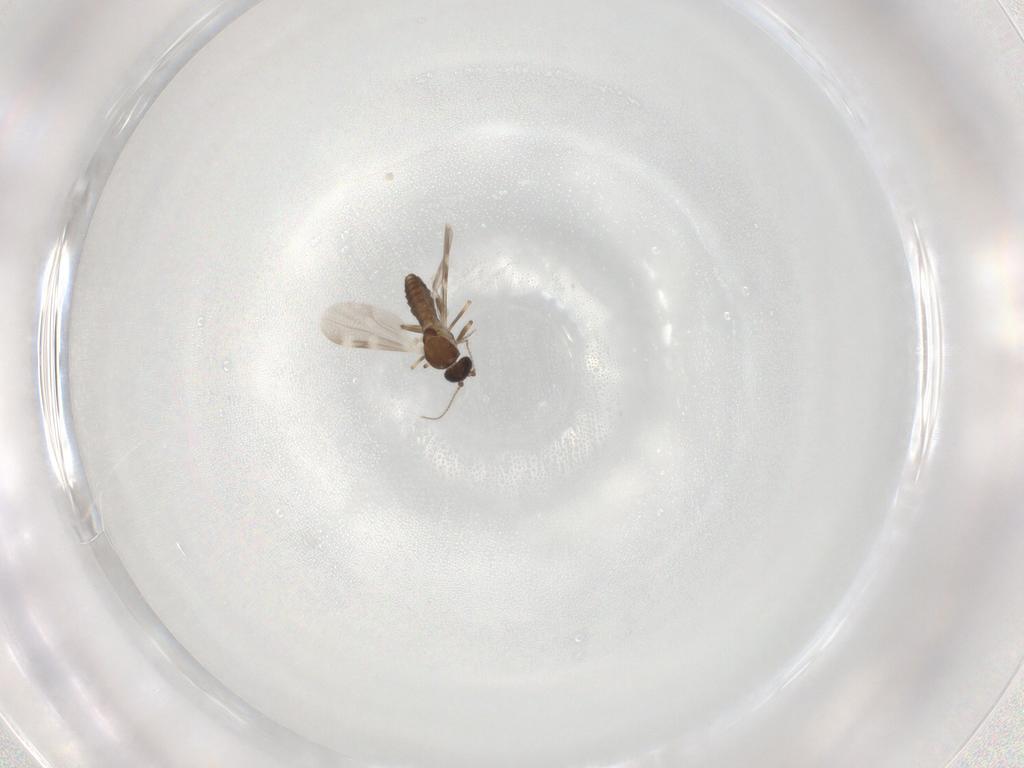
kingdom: Animalia
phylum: Arthropoda
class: Insecta
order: Diptera
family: Ceratopogonidae
